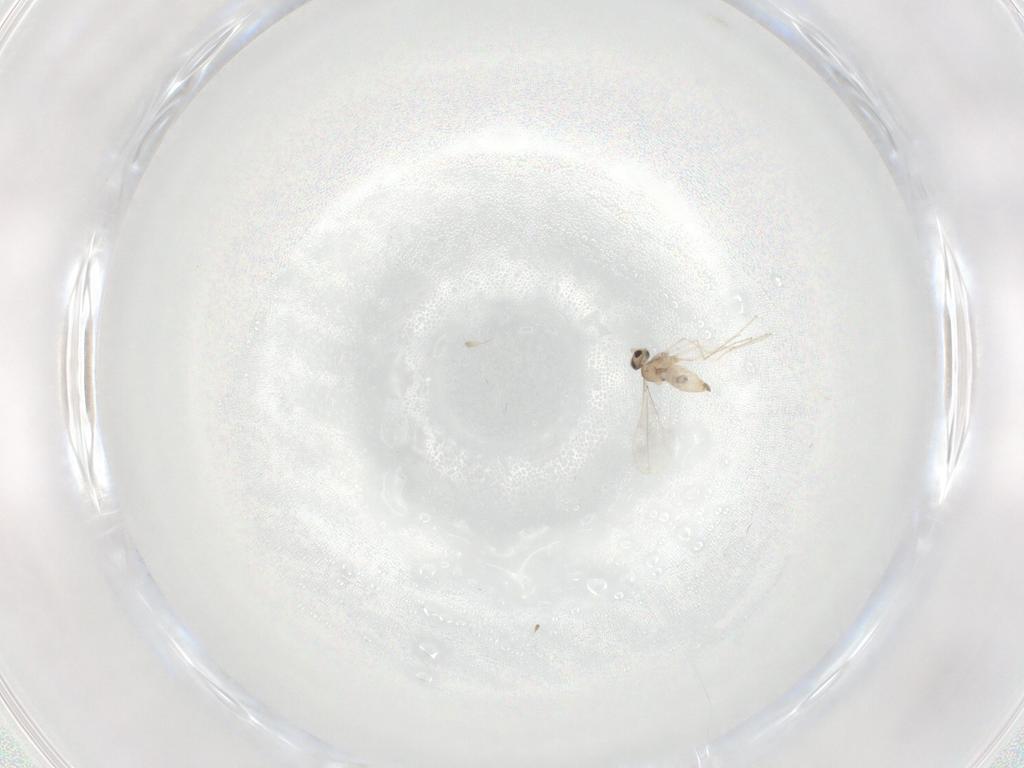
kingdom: Animalia
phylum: Arthropoda
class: Insecta
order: Diptera
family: Cecidomyiidae
